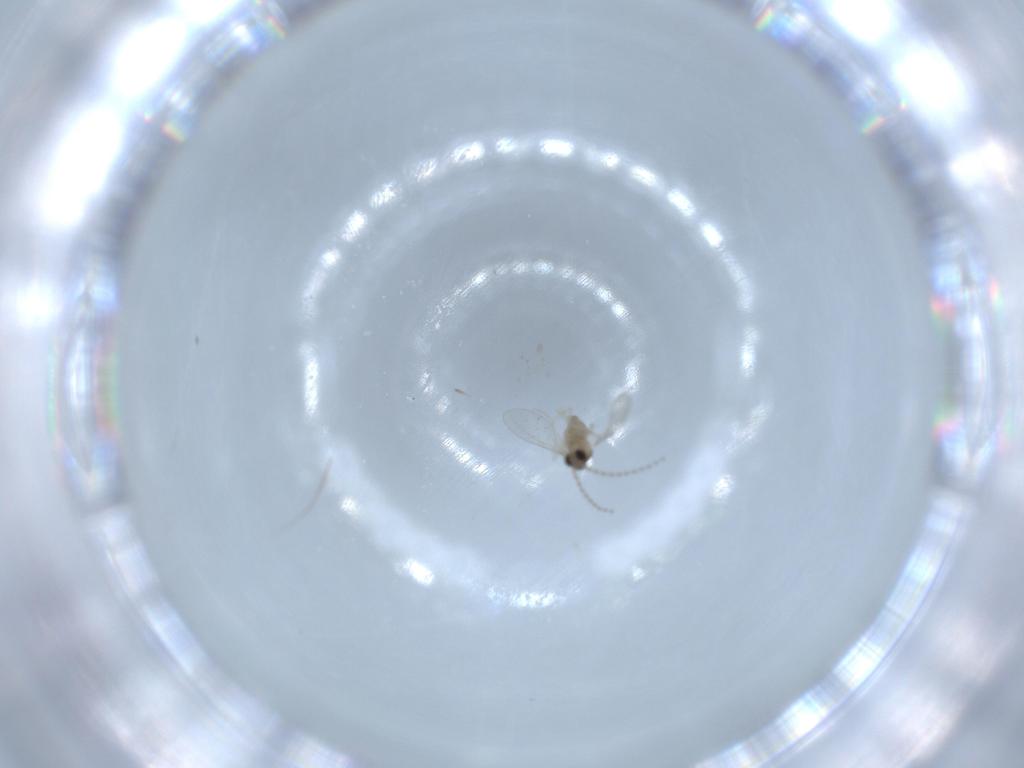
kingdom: Animalia
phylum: Arthropoda
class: Insecta
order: Diptera
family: Cecidomyiidae
